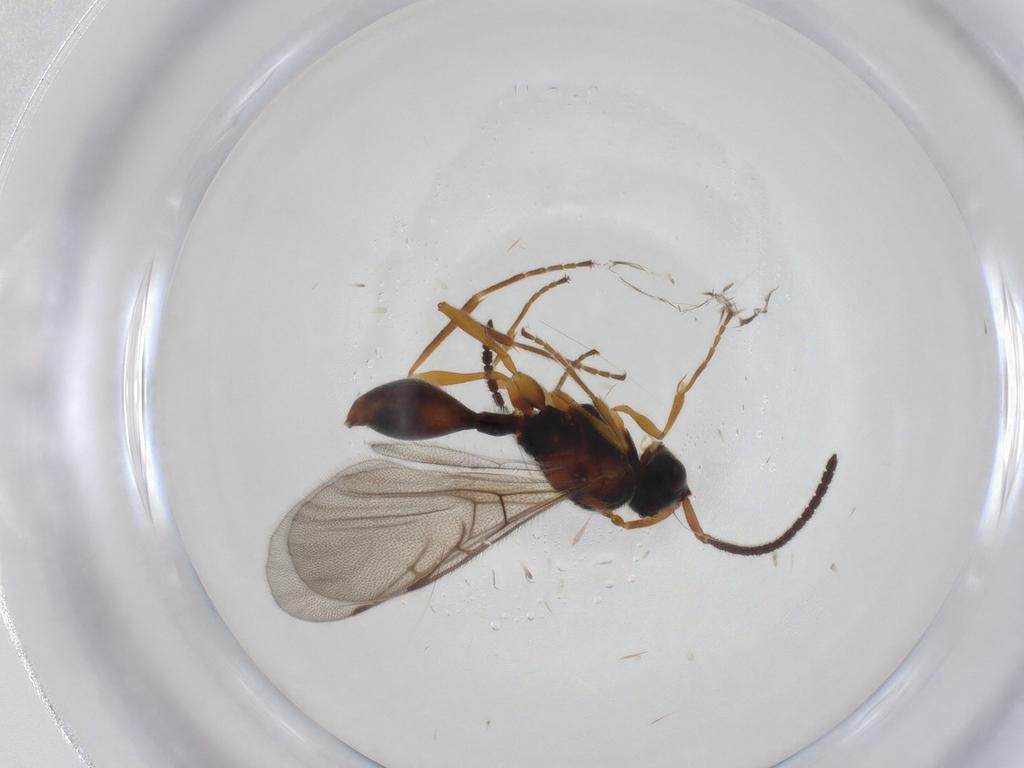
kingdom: Animalia
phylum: Arthropoda
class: Insecta
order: Hymenoptera
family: Diapriidae
